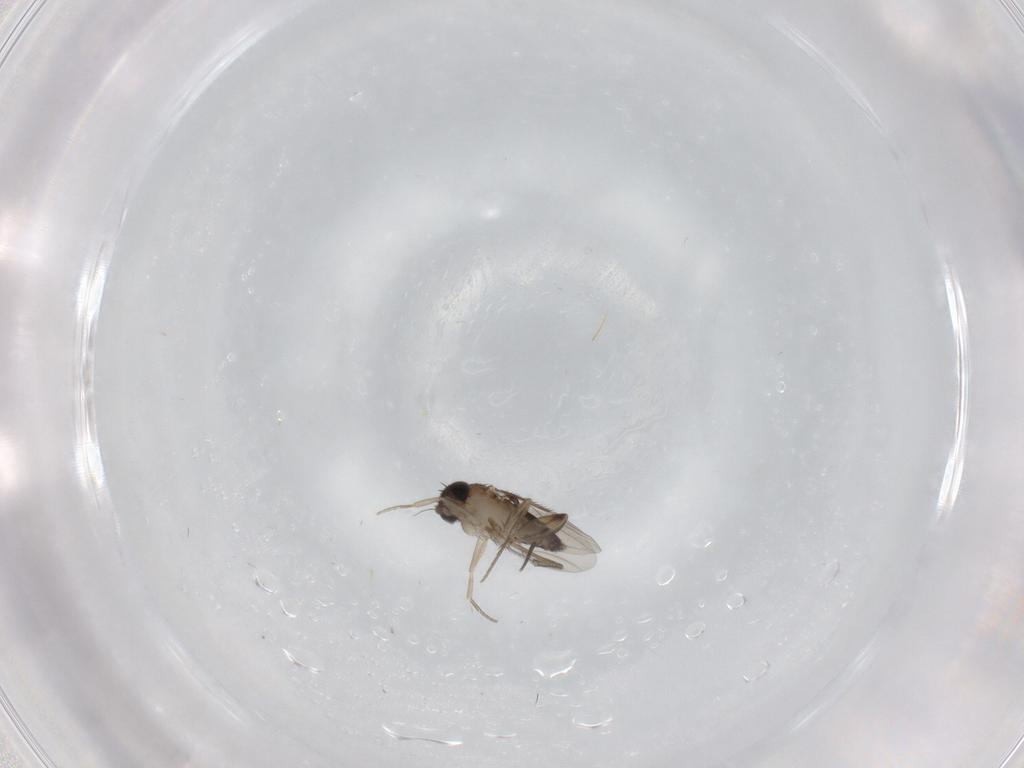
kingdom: Animalia
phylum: Arthropoda
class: Insecta
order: Diptera
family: Phoridae
